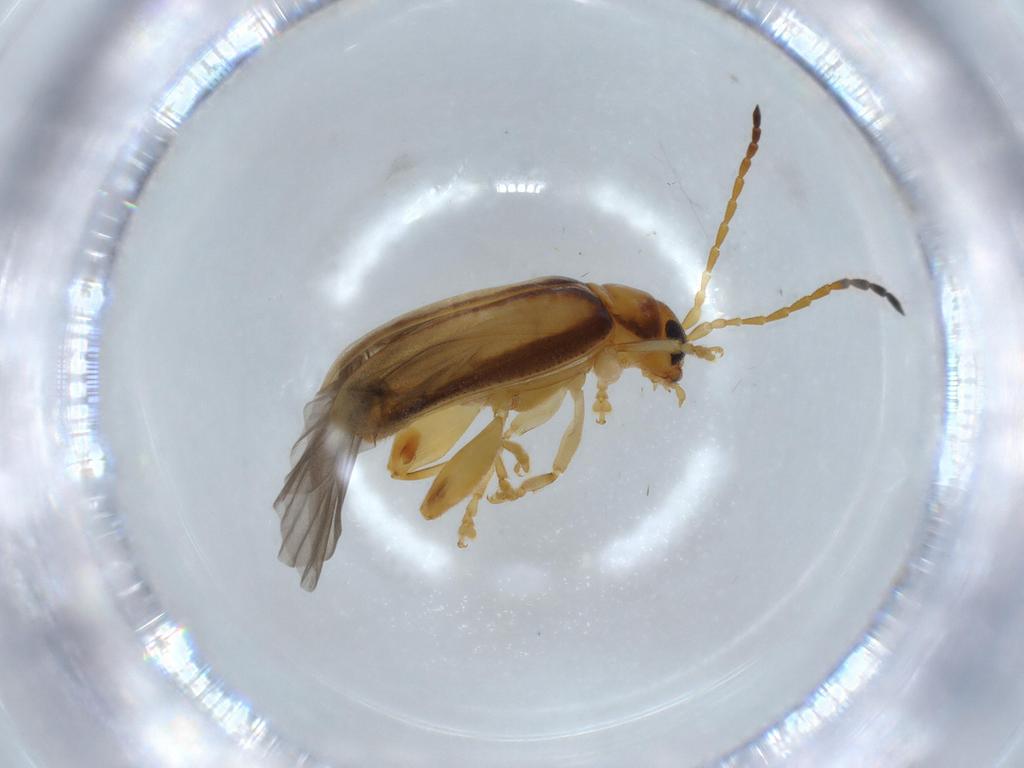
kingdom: Animalia
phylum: Arthropoda
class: Insecta
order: Coleoptera
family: Chrysomelidae
